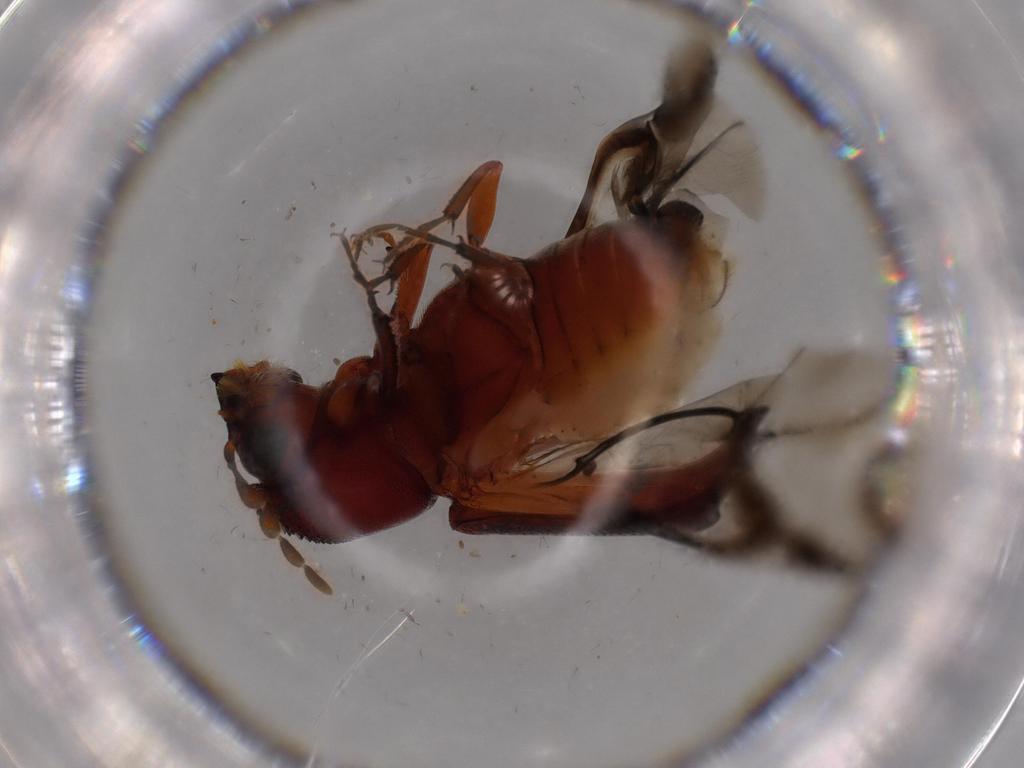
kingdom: Animalia
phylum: Arthropoda
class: Insecta
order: Coleoptera
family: Bostrichidae
